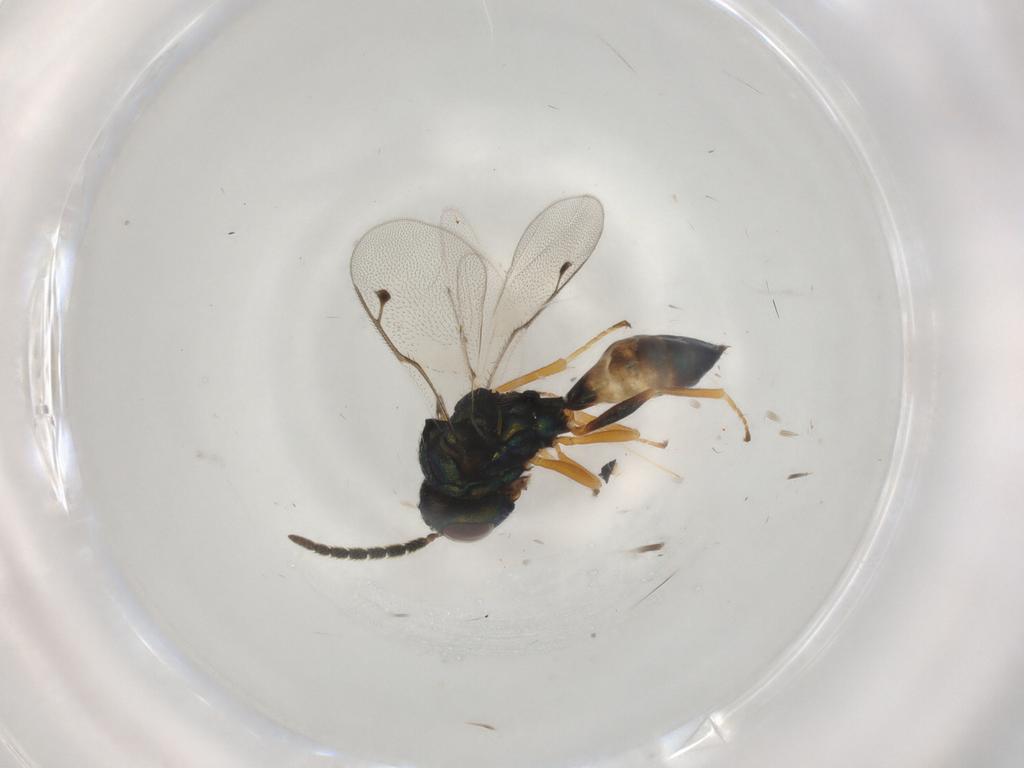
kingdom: Animalia
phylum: Arthropoda
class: Insecta
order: Hymenoptera
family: Pteromalidae
